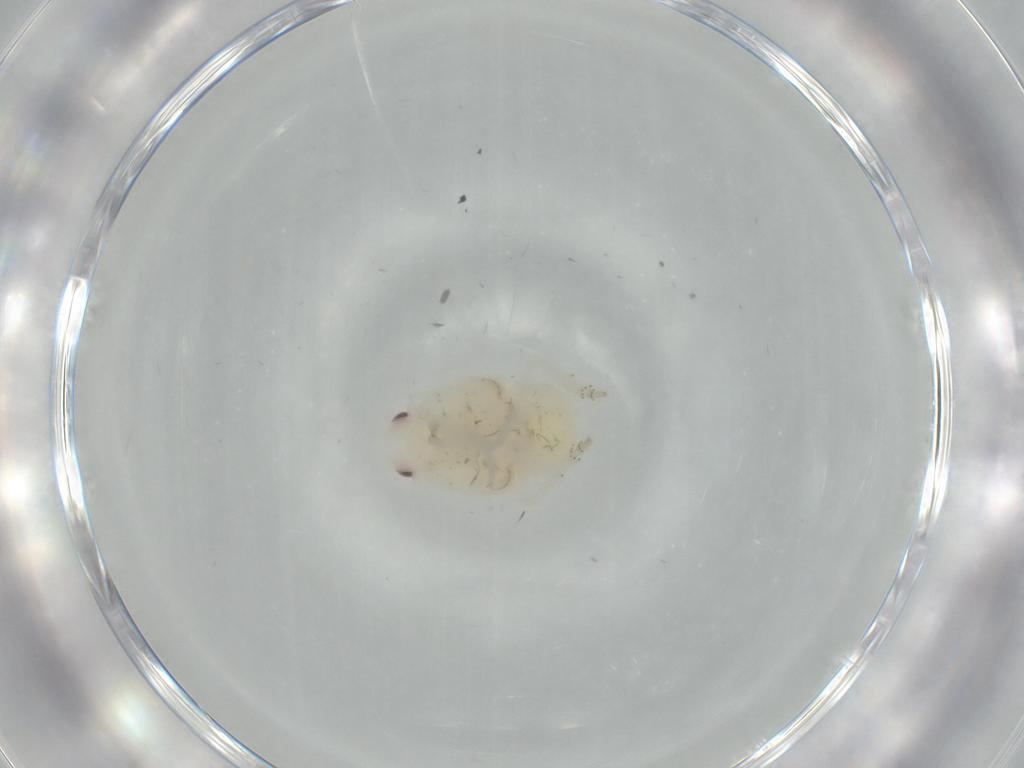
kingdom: Animalia
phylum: Arthropoda
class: Insecta
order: Hemiptera
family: Flatidae
